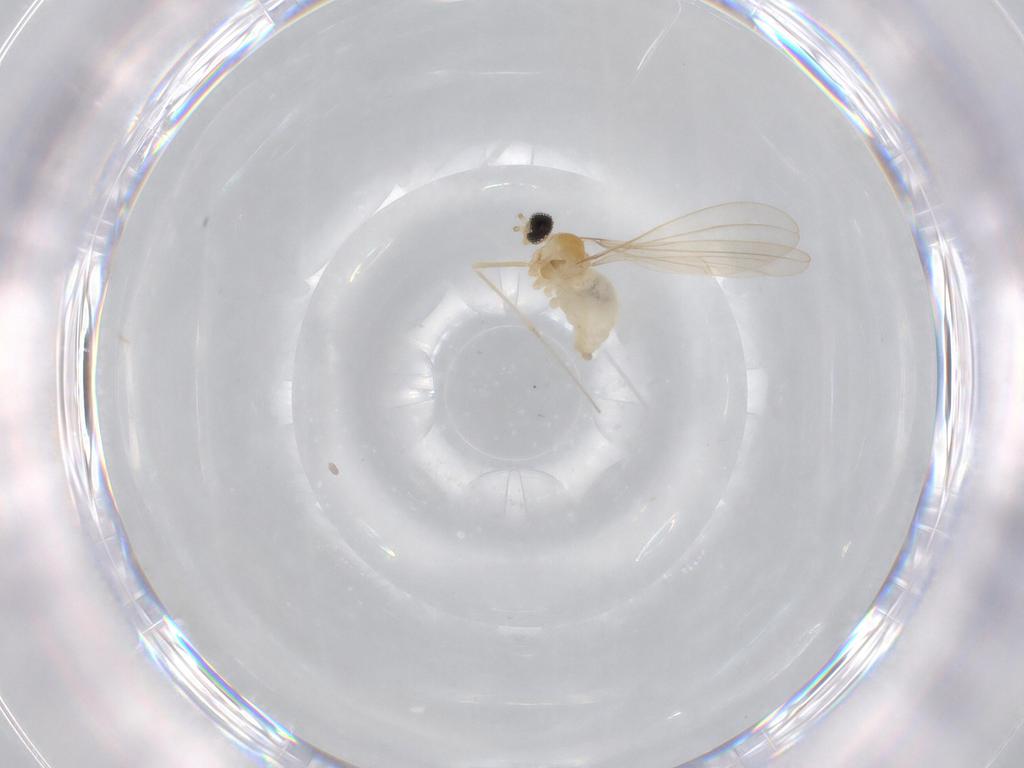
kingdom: Animalia
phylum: Arthropoda
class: Insecta
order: Diptera
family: Chironomidae
